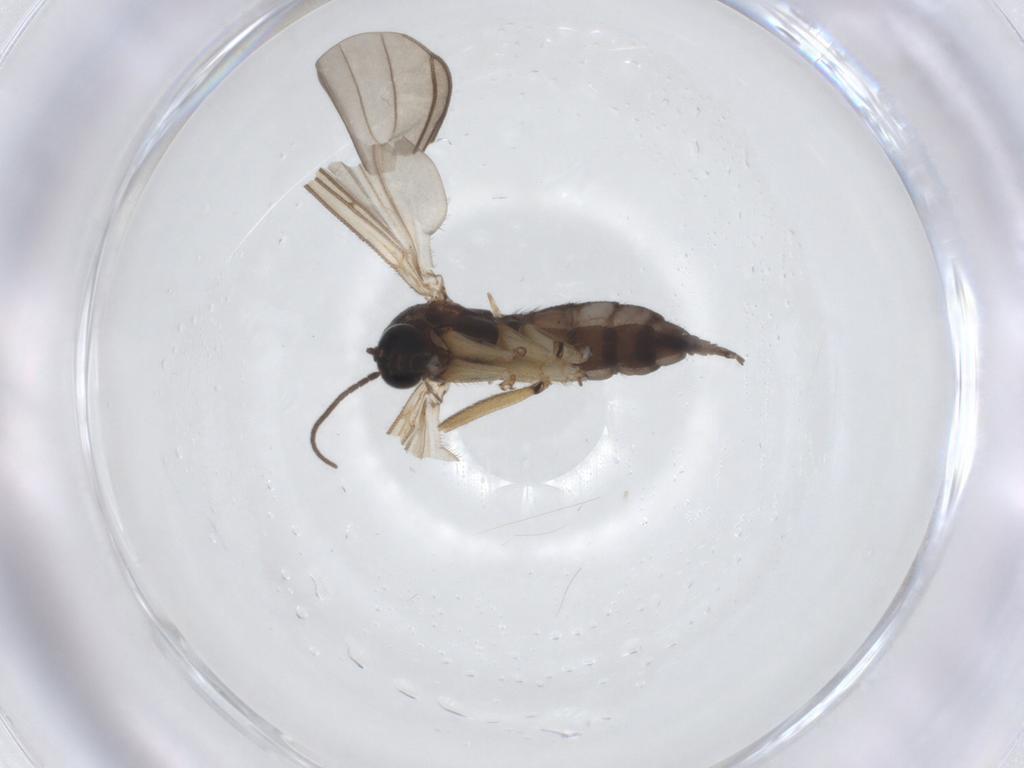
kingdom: Animalia
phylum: Arthropoda
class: Insecta
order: Diptera
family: Sciaridae
